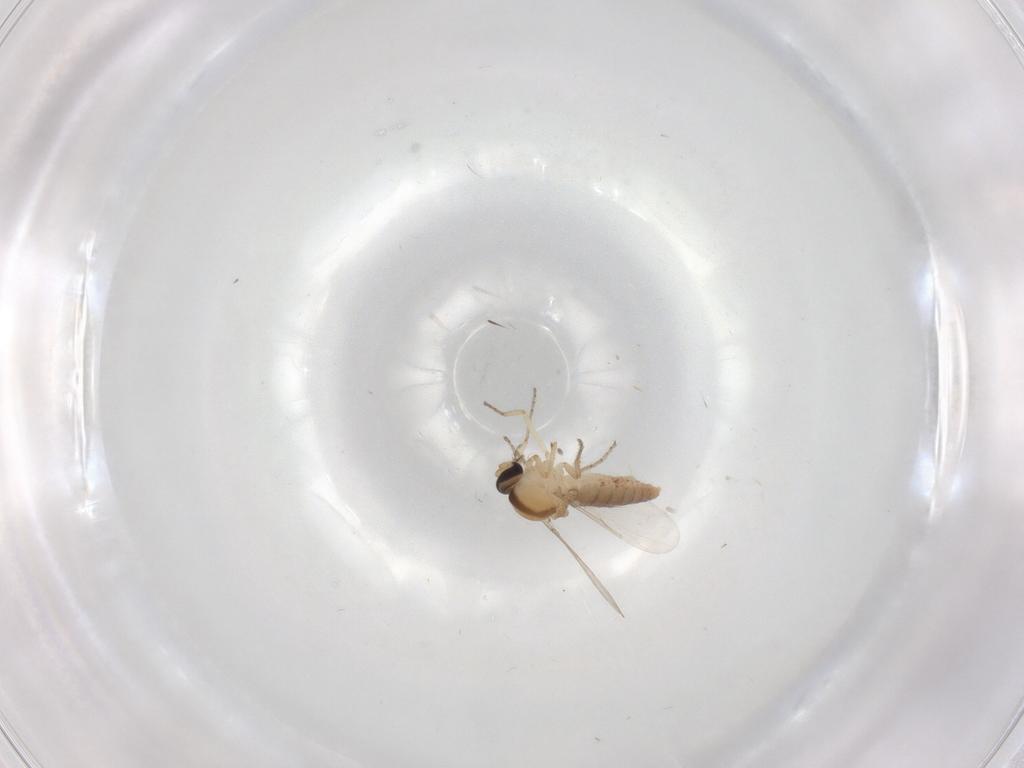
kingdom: Animalia
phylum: Arthropoda
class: Insecta
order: Diptera
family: Ceratopogonidae
